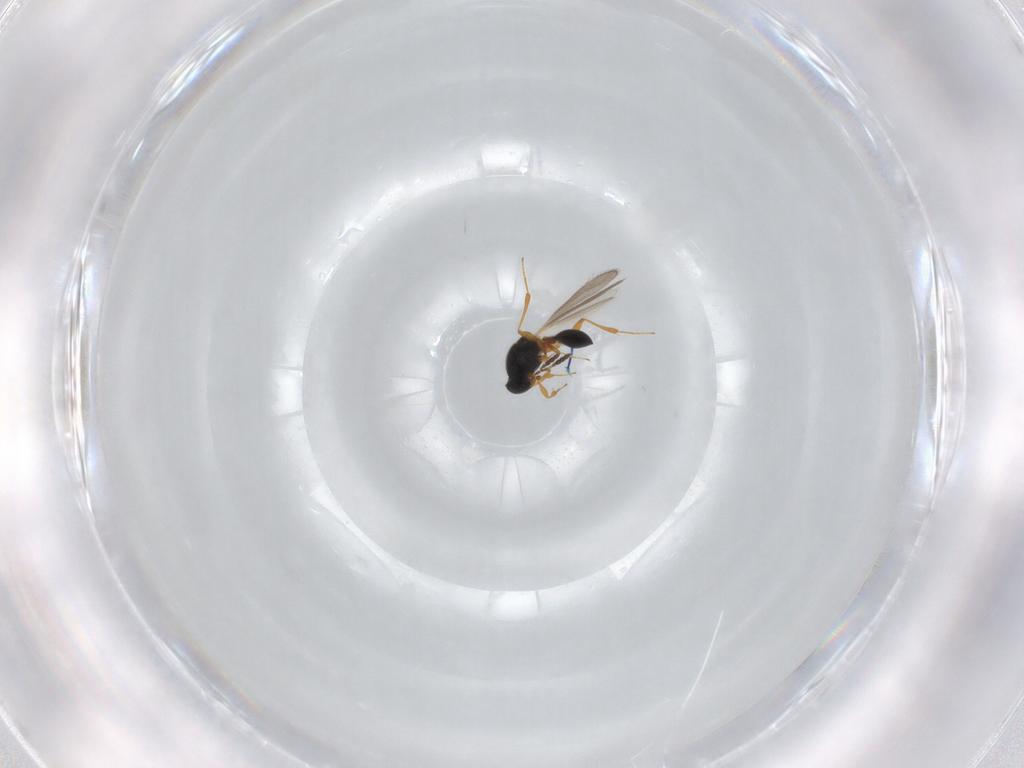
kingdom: Animalia
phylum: Arthropoda
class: Insecta
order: Hymenoptera
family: Platygastridae
